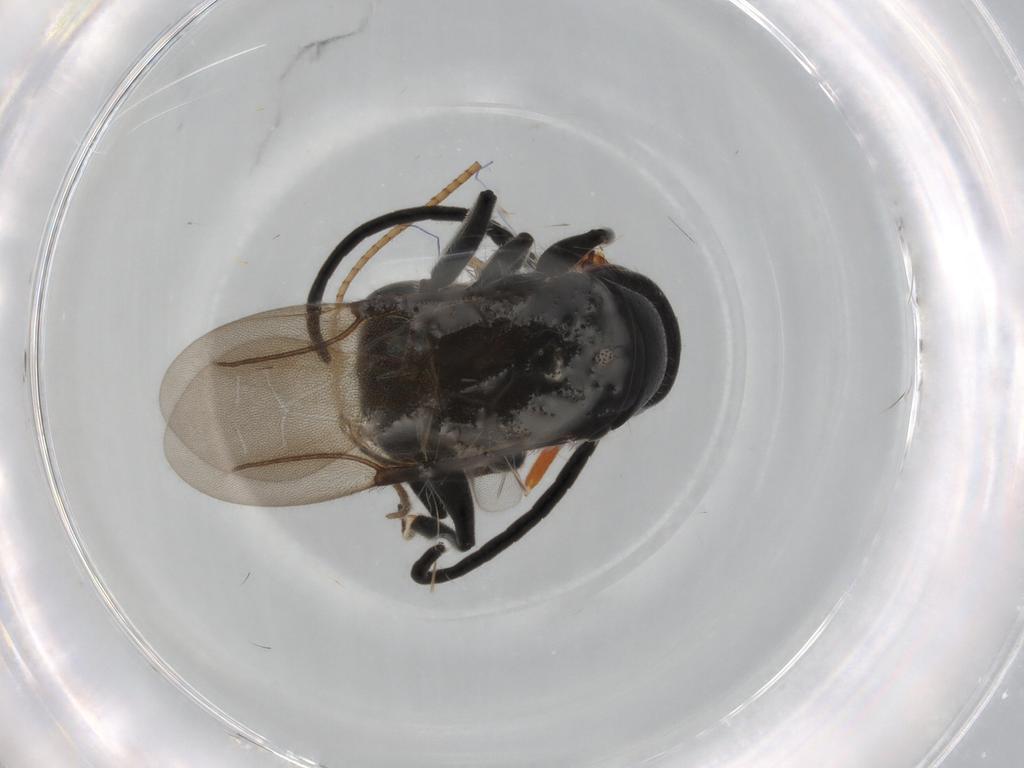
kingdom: Animalia
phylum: Arthropoda
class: Insecta
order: Hymenoptera
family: Bethylidae
